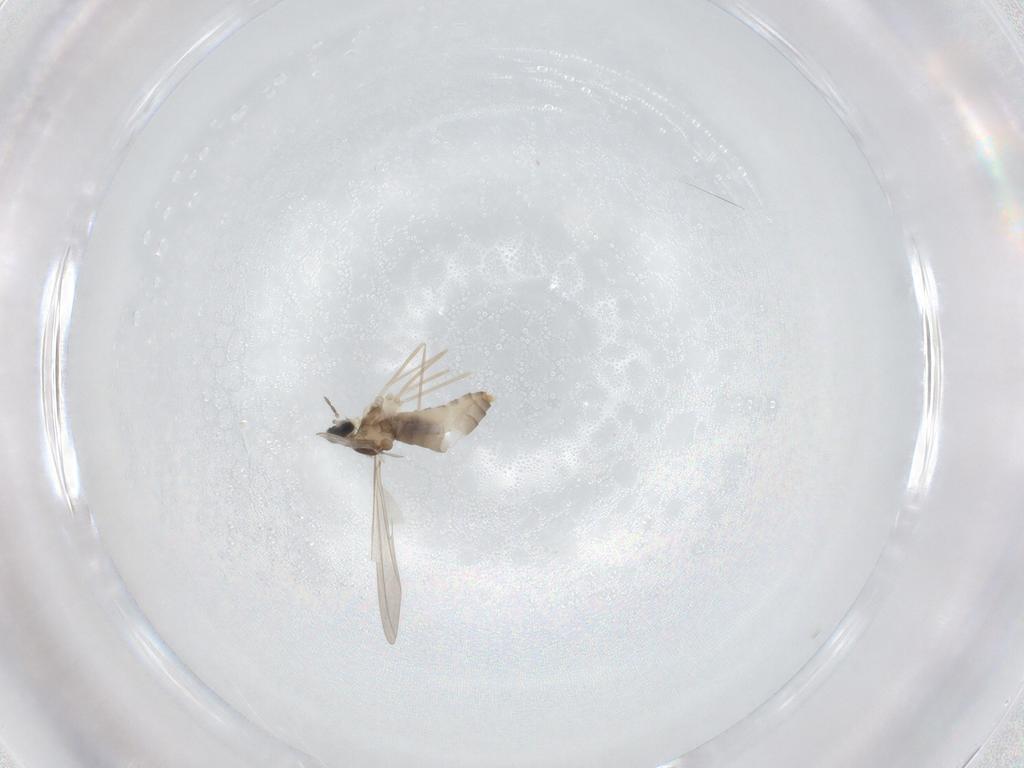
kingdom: Animalia
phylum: Arthropoda
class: Insecta
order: Diptera
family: Cecidomyiidae
